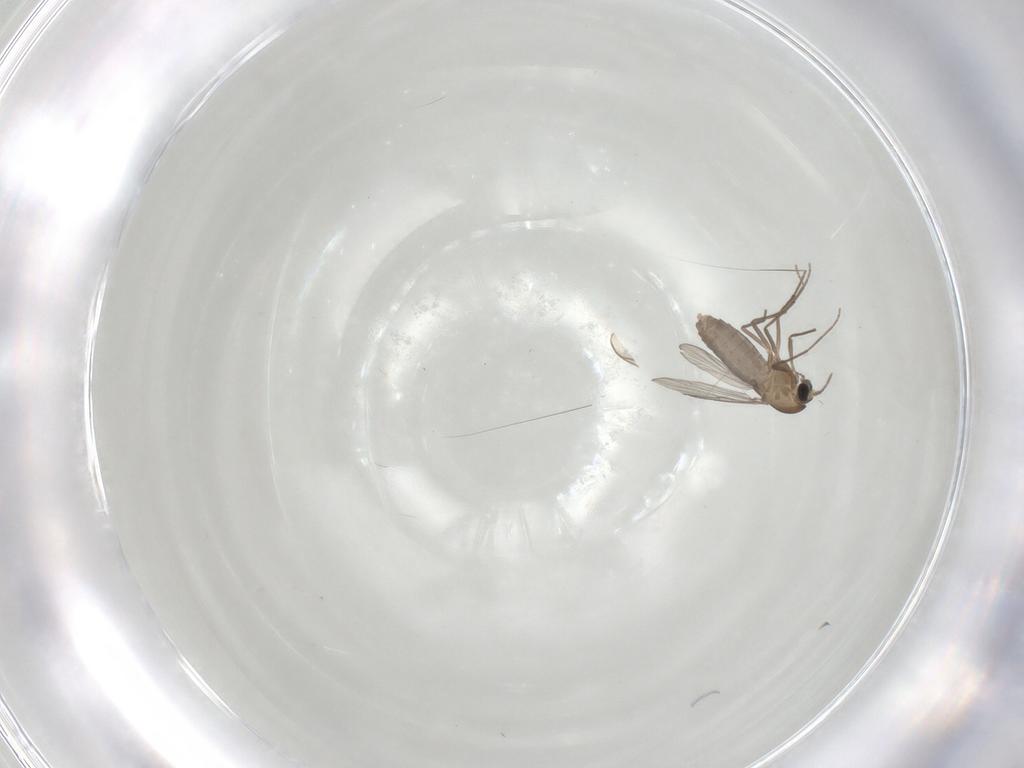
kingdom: Animalia
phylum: Arthropoda
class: Insecta
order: Diptera
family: Chironomidae
